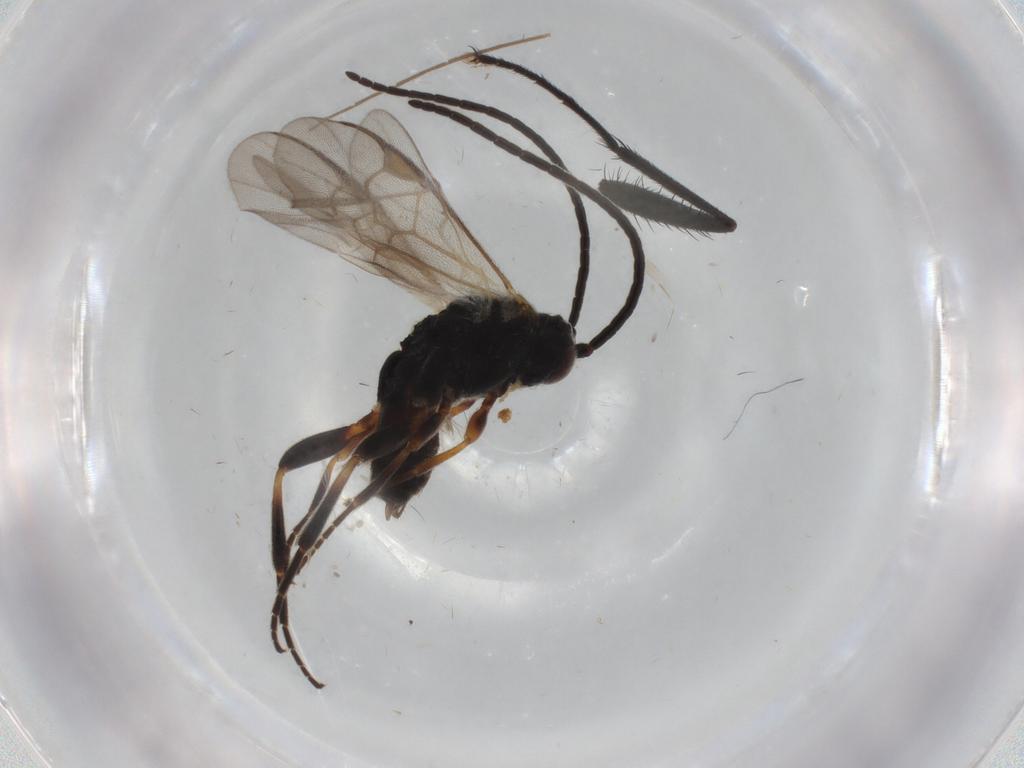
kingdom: Animalia
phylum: Arthropoda
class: Insecta
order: Hymenoptera
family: Braconidae
